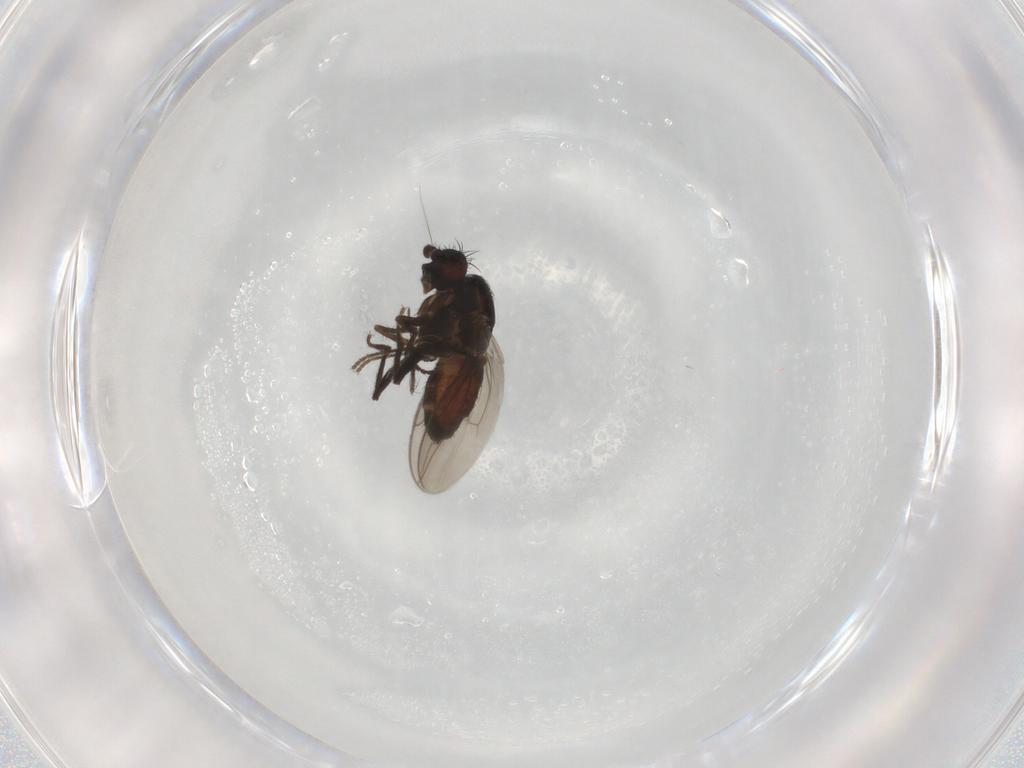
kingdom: Animalia
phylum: Arthropoda
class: Insecta
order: Diptera
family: Sphaeroceridae
